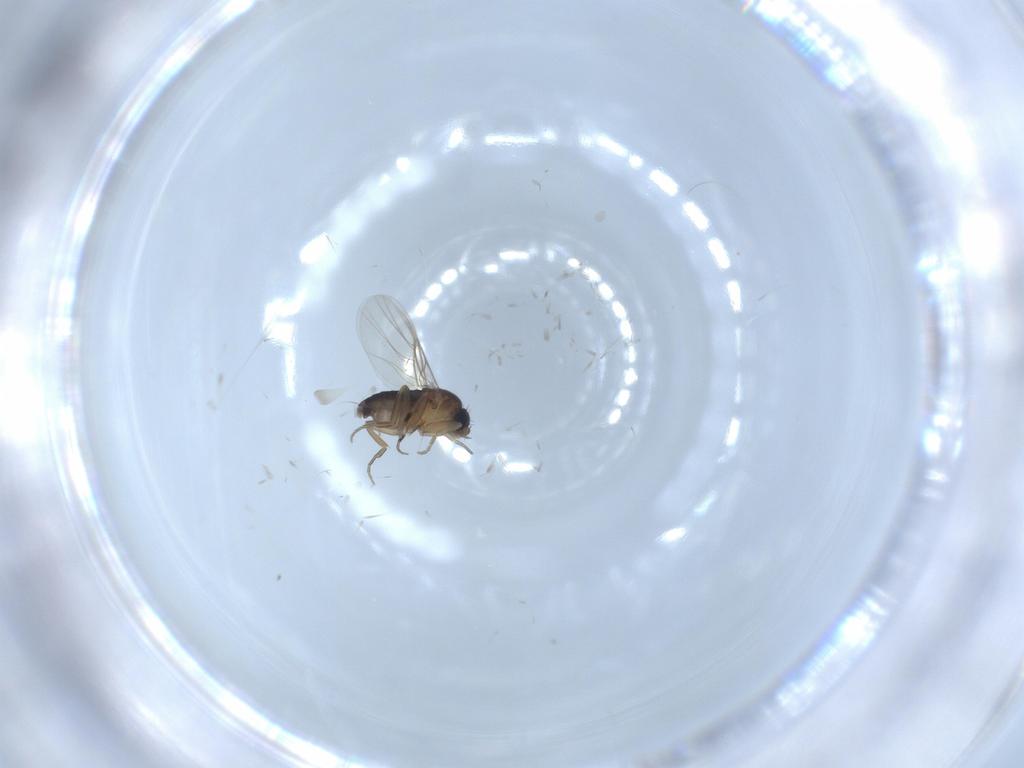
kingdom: Animalia
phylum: Arthropoda
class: Insecta
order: Diptera
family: Phoridae
